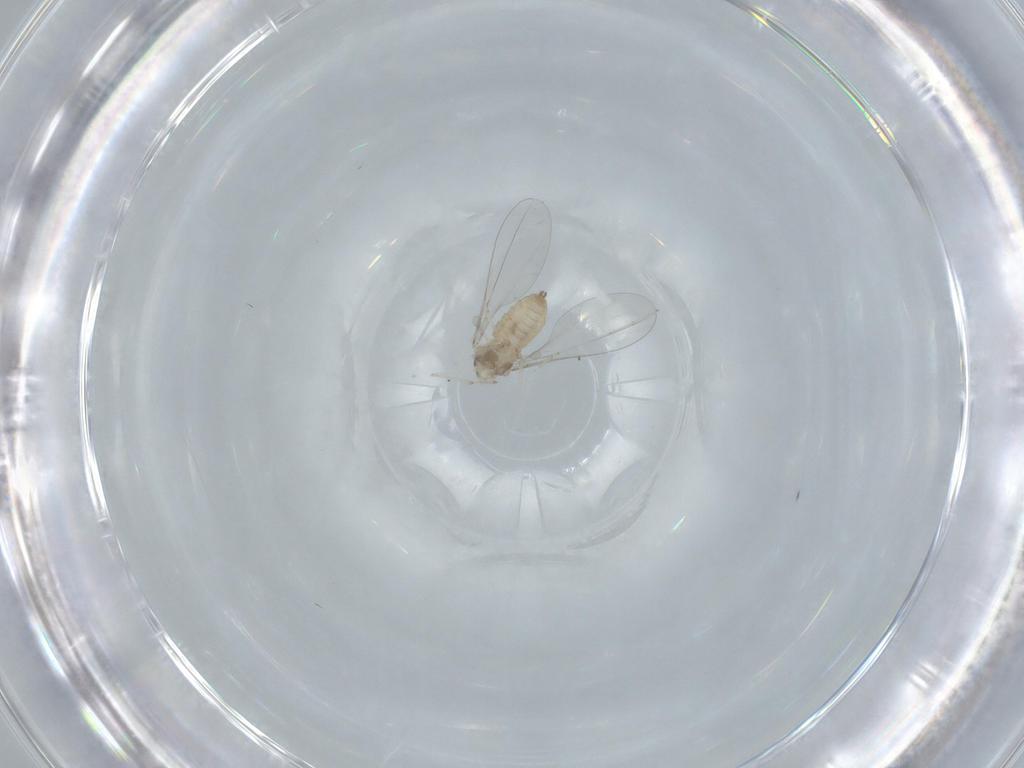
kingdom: Animalia
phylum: Arthropoda
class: Insecta
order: Diptera
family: Cecidomyiidae
